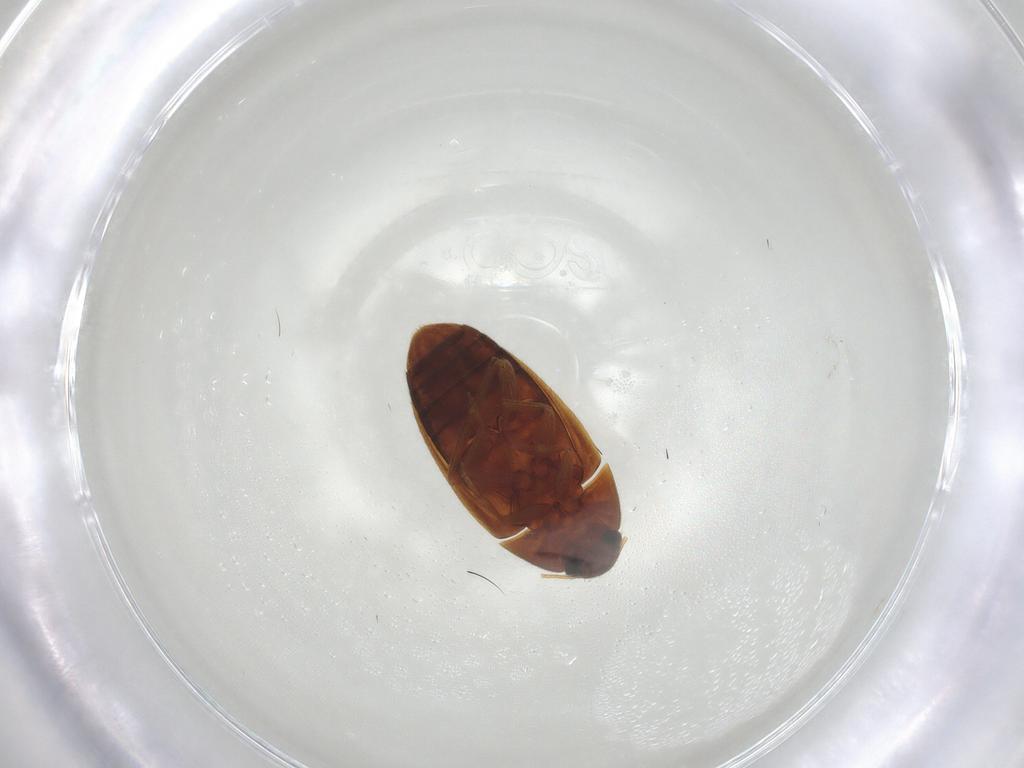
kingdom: Animalia
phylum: Arthropoda
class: Insecta
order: Coleoptera
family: Mycetophagidae
